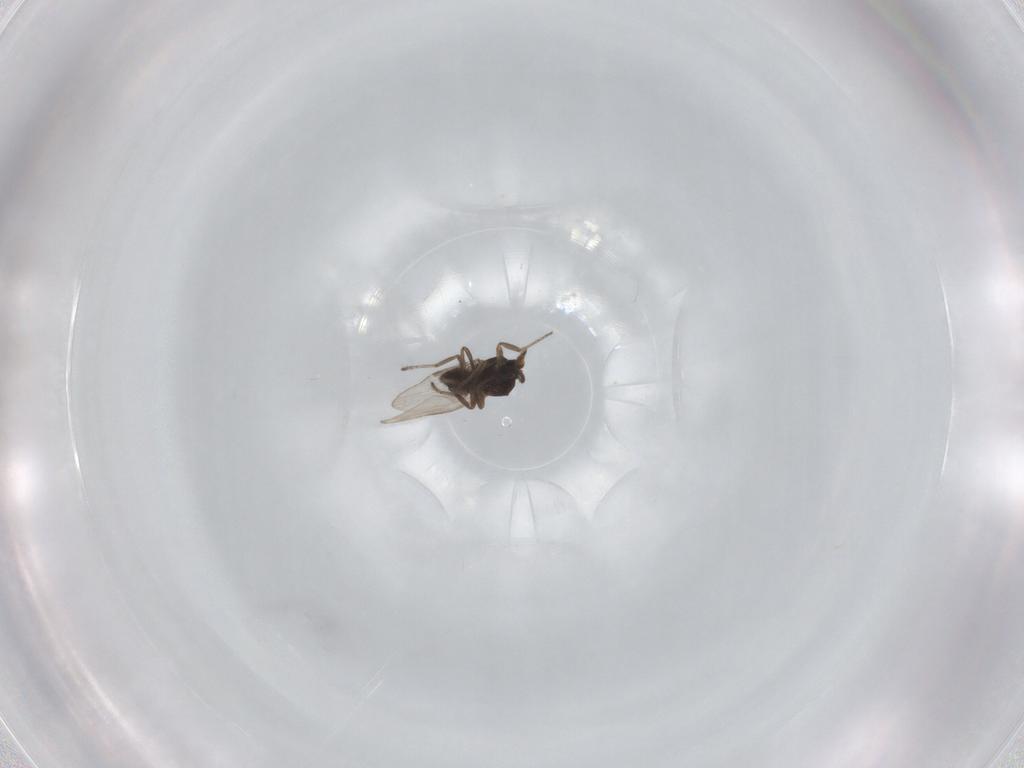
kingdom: Animalia
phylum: Arthropoda
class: Insecta
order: Diptera
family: Ceratopogonidae
